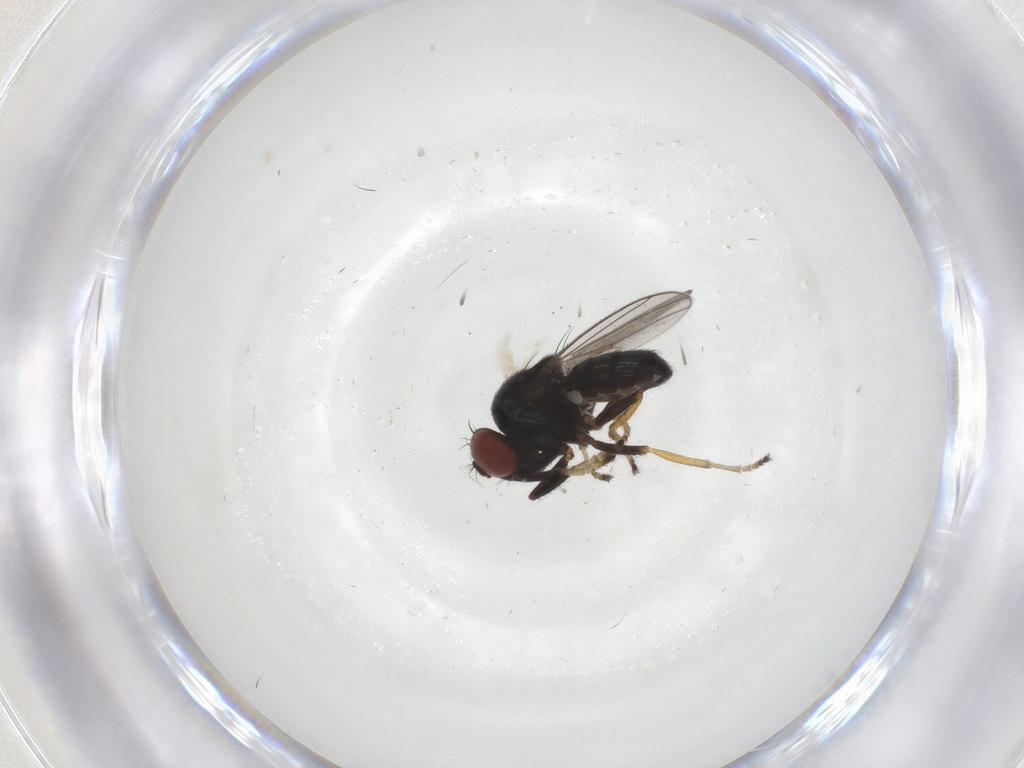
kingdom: Animalia
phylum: Arthropoda
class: Insecta
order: Diptera
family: Ephydridae
